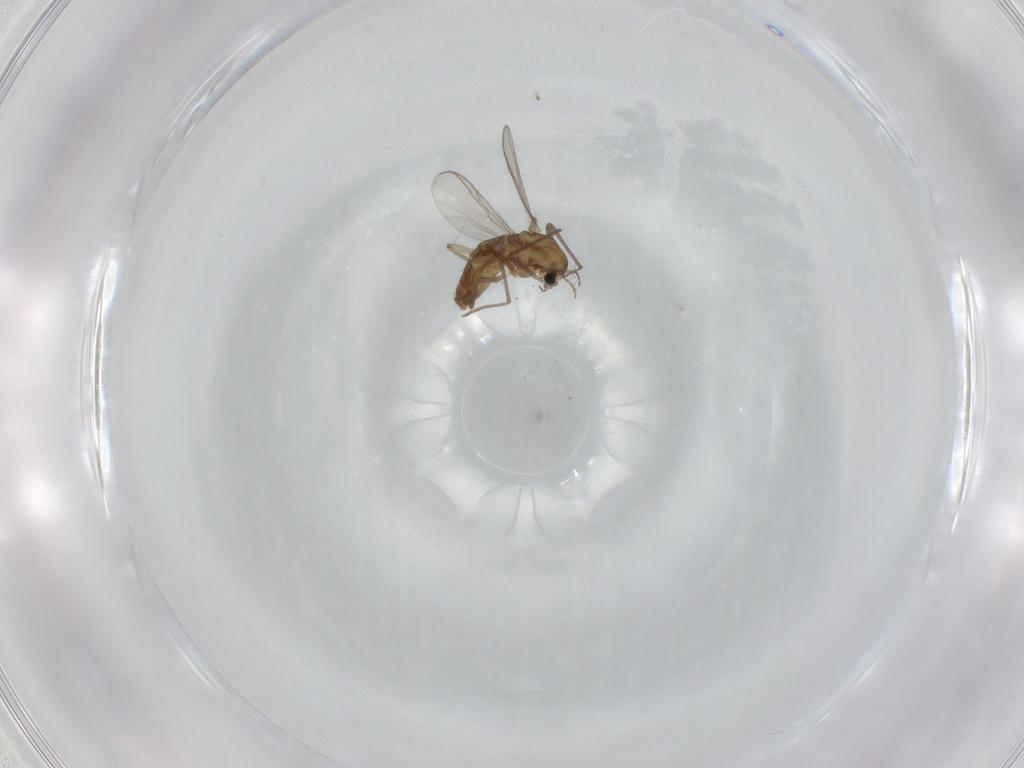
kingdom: Animalia
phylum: Arthropoda
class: Insecta
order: Diptera
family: Chironomidae
